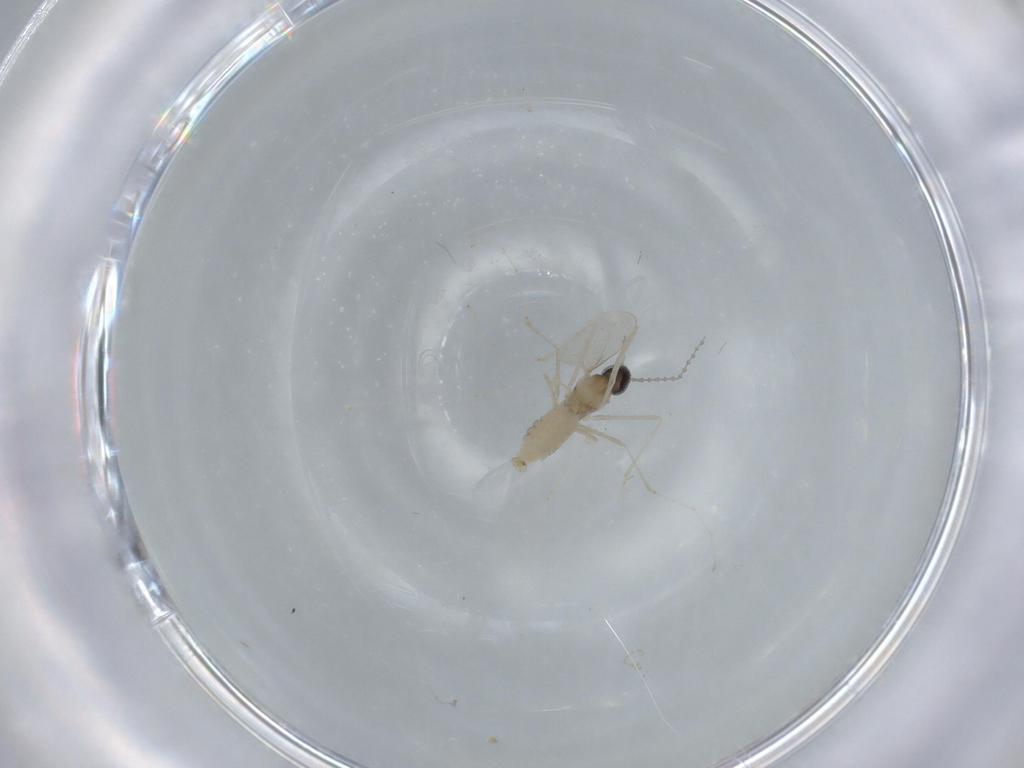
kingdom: Animalia
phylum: Arthropoda
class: Insecta
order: Diptera
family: Cecidomyiidae
